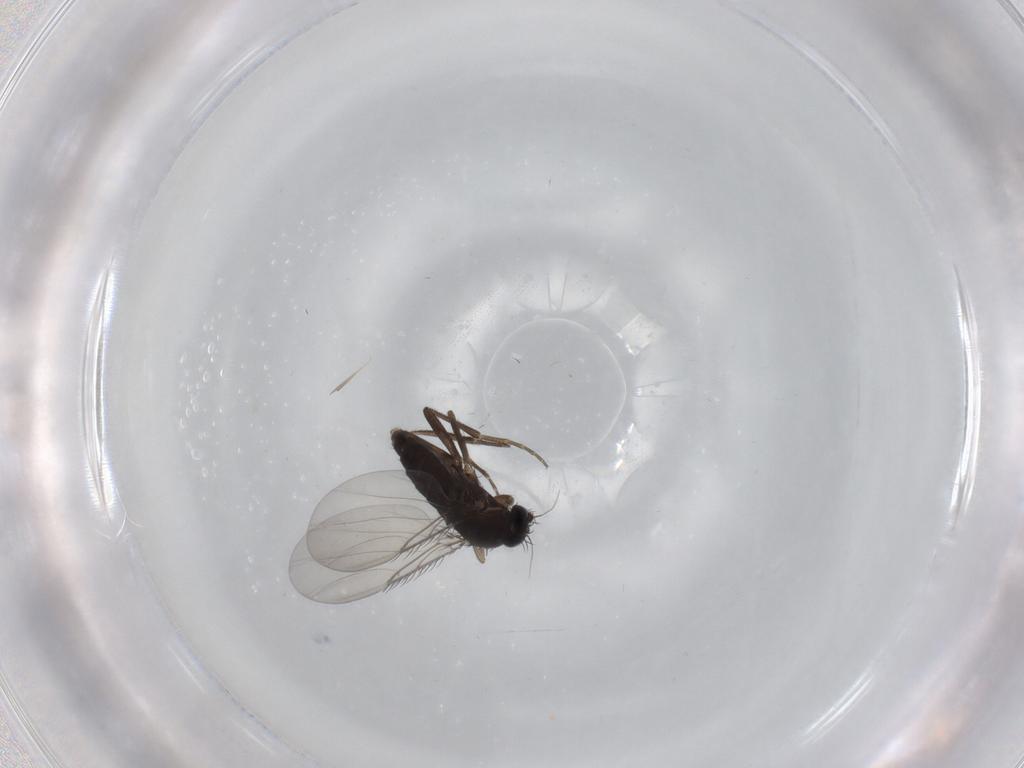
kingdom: Animalia
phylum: Arthropoda
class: Insecta
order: Diptera
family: Phoridae
